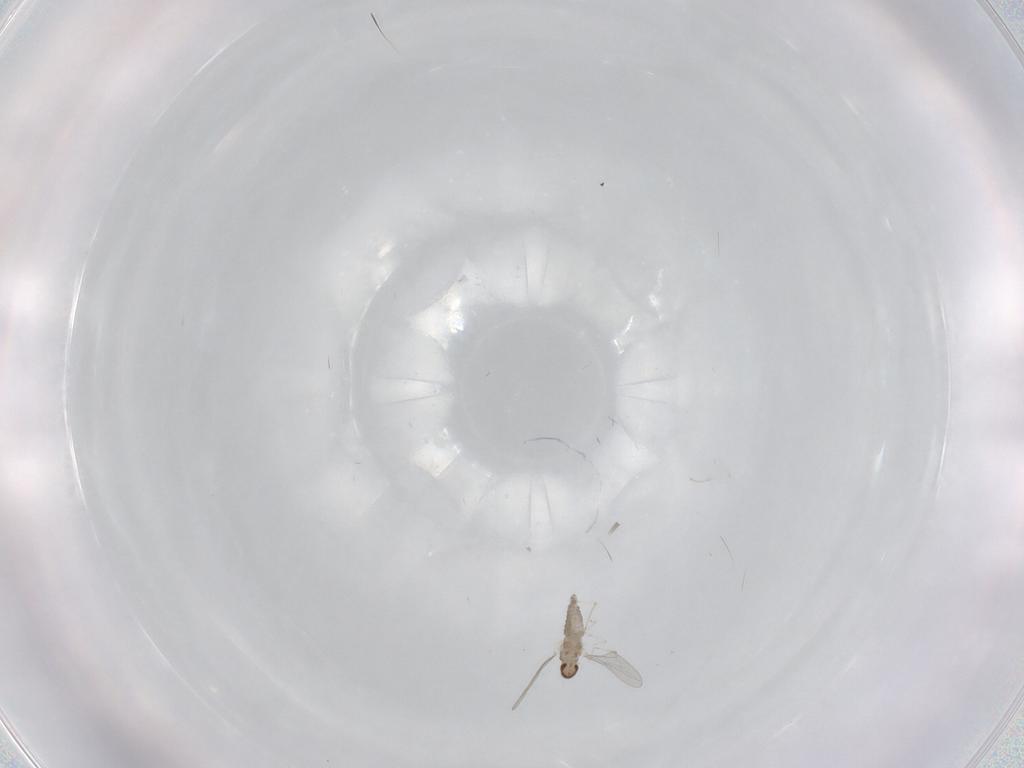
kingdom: Animalia
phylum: Arthropoda
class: Insecta
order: Diptera
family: Cecidomyiidae
